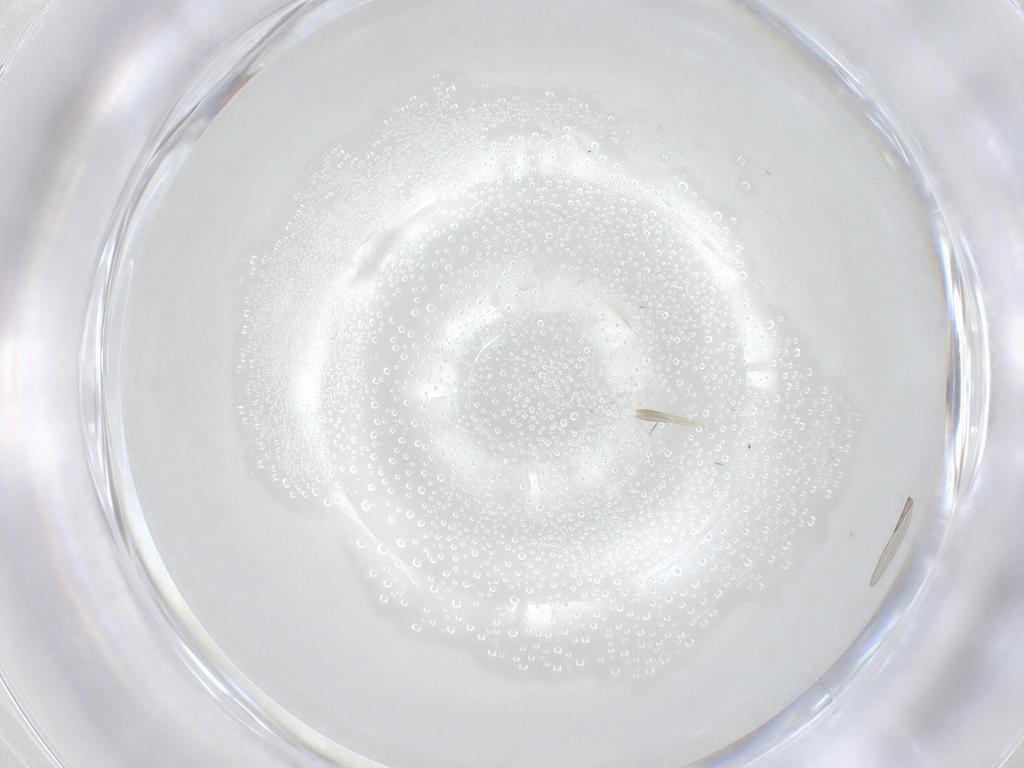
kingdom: Animalia
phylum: Arthropoda
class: Insecta
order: Diptera
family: Phoridae
